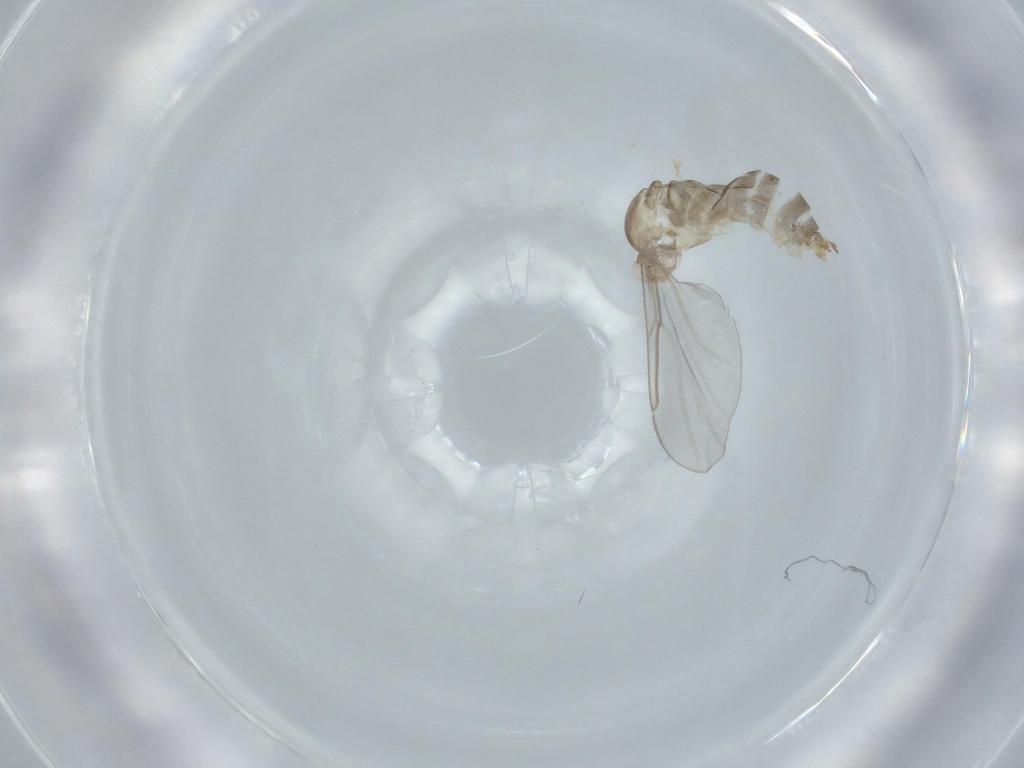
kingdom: Animalia
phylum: Arthropoda
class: Insecta
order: Diptera
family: Cecidomyiidae
